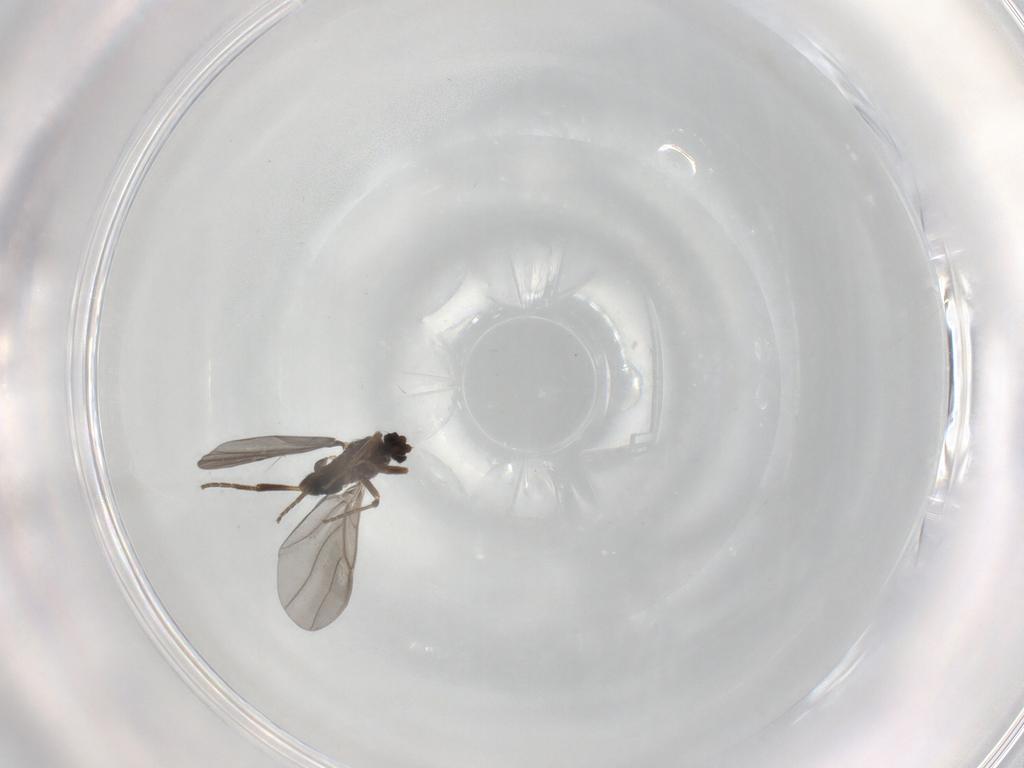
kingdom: Animalia
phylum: Arthropoda
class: Insecta
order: Diptera
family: Phoridae
